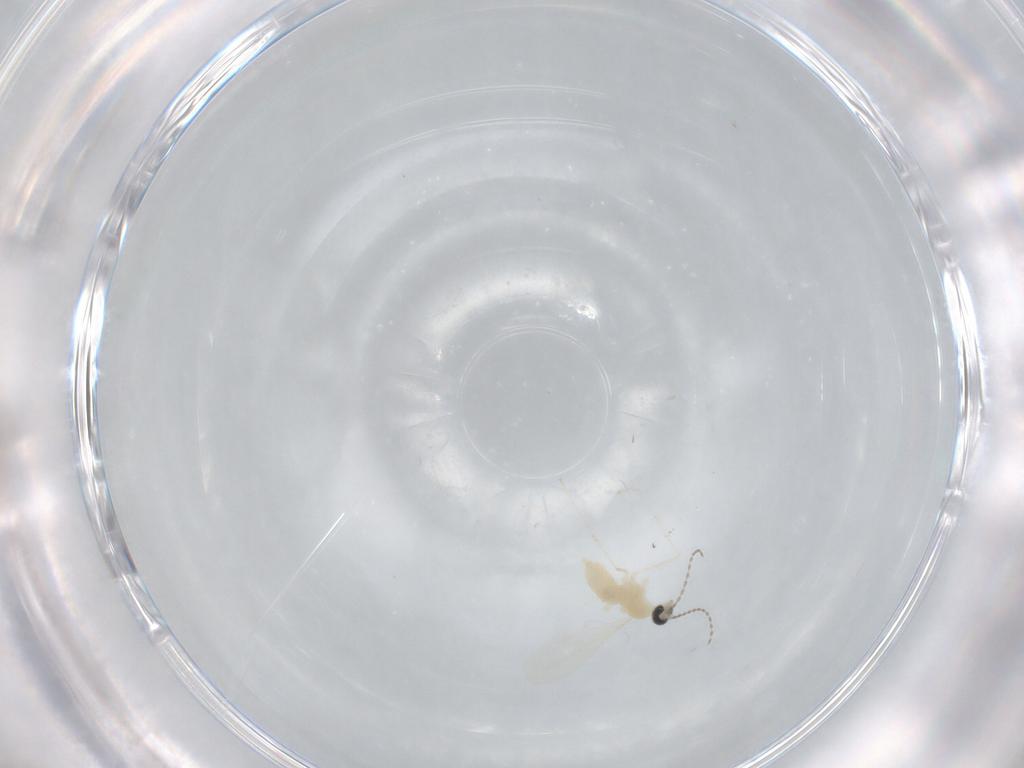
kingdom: Animalia
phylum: Arthropoda
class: Insecta
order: Diptera
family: Cecidomyiidae
